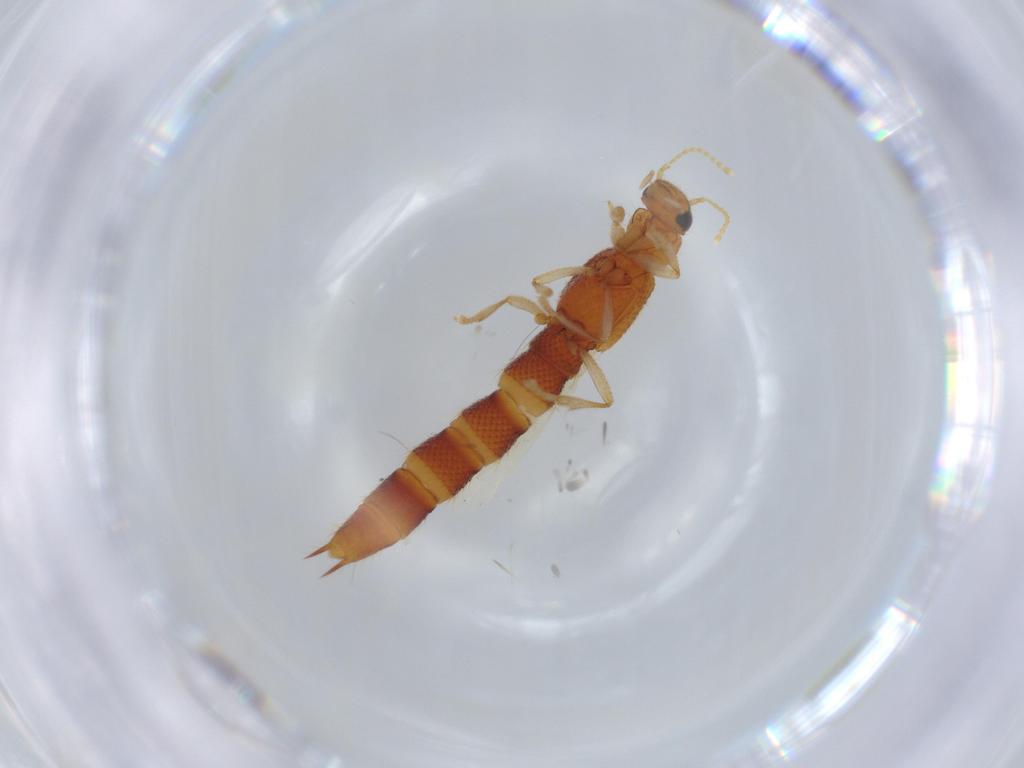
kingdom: Animalia
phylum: Arthropoda
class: Insecta
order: Coleoptera
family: Staphylinidae
